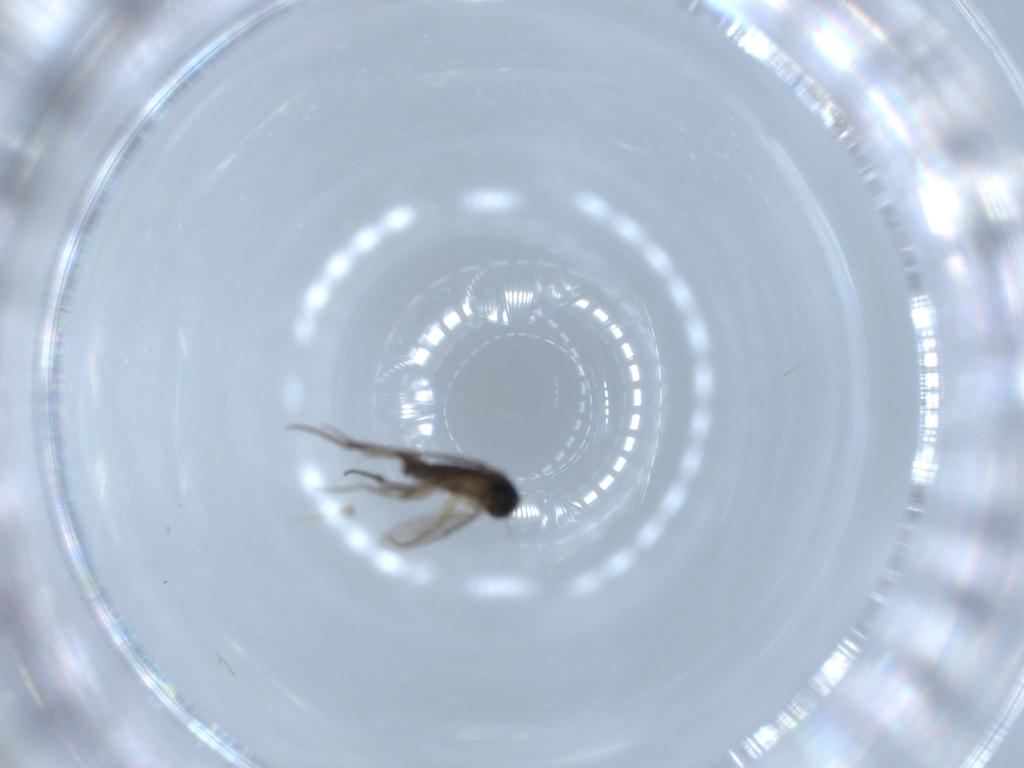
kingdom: Animalia
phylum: Arthropoda
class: Insecta
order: Diptera
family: Phoridae
